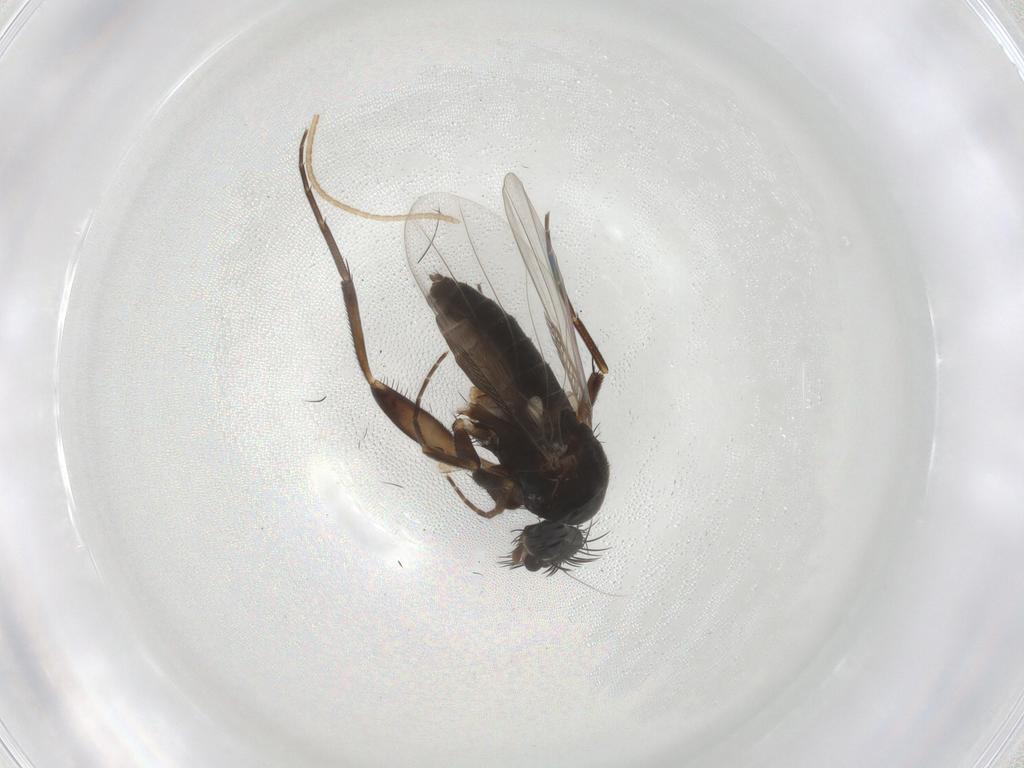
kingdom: Animalia
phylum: Arthropoda
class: Insecta
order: Diptera
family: Phoridae
